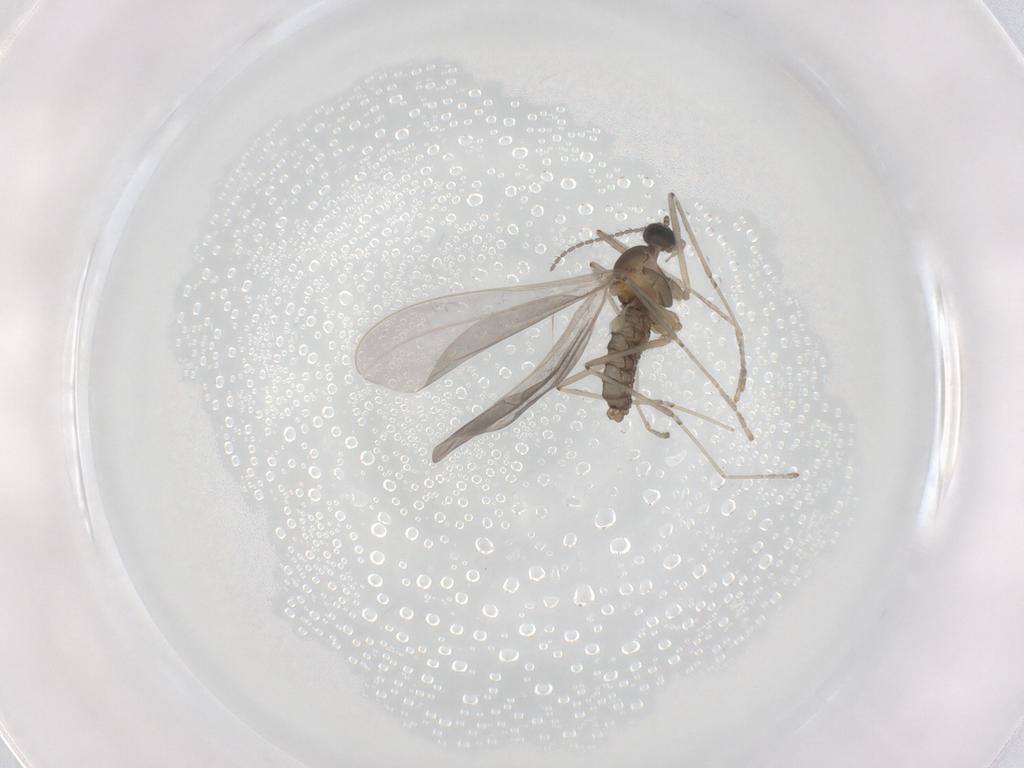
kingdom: Animalia
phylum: Arthropoda
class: Insecta
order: Diptera
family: Cecidomyiidae
